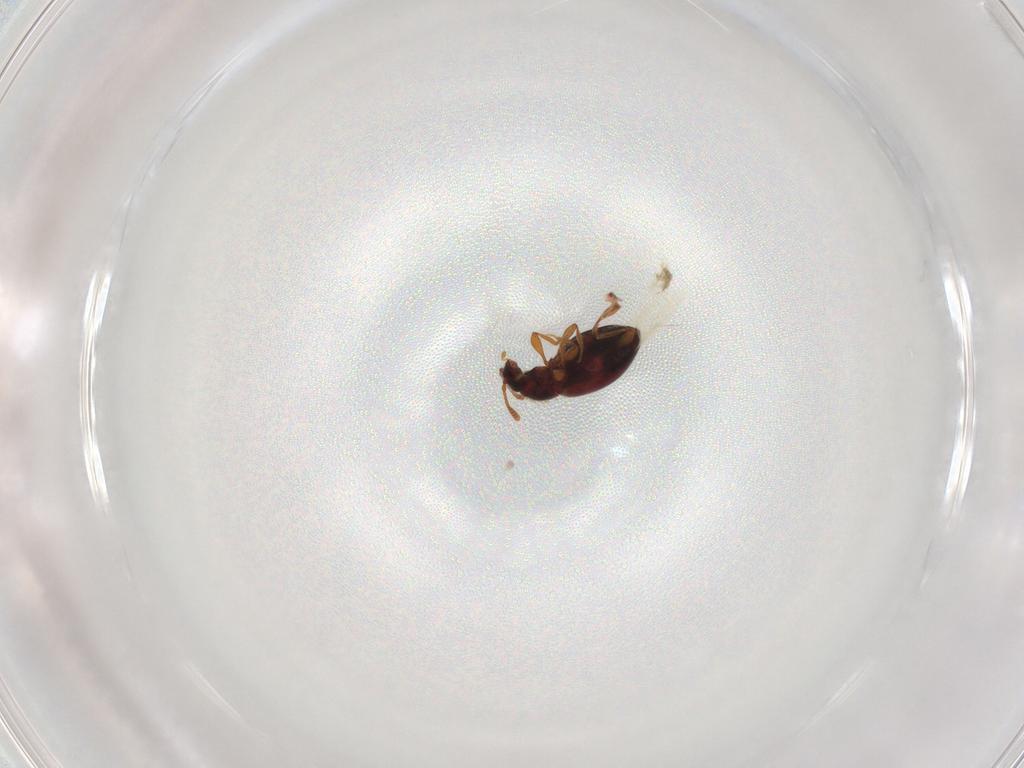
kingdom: Animalia
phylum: Arthropoda
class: Insecta
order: Coleoptera
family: Staphylinidae
